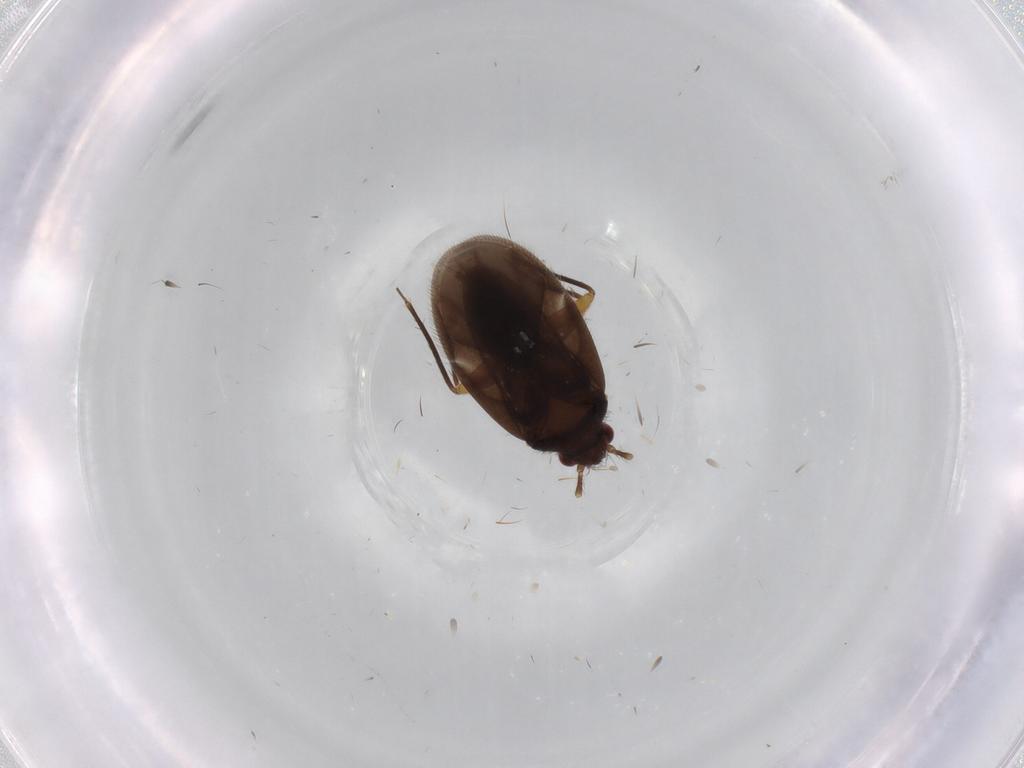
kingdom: Animalia
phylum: Arthropoda
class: Insecta
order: Hemiptera
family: Ceratocombidae
